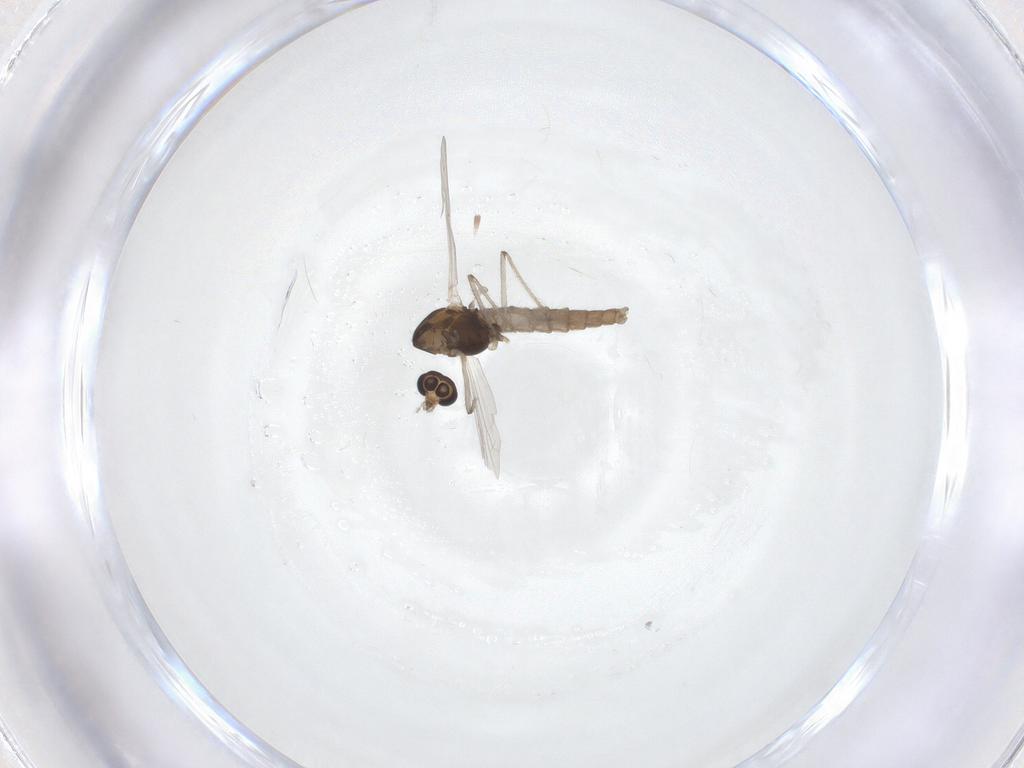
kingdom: Animalia
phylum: Arthropoda
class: Insecta
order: Diptera
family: Chironomidae
